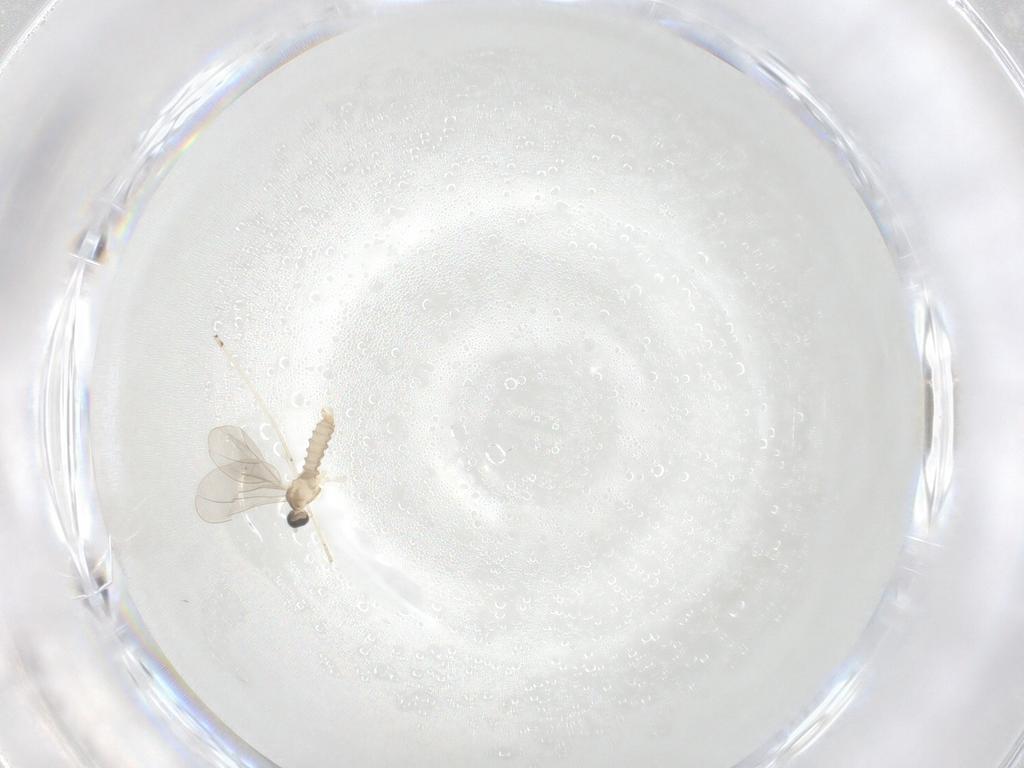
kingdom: Animalia
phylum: Arthropoda
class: Insecta
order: Diptera
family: Cecidomyiidae
